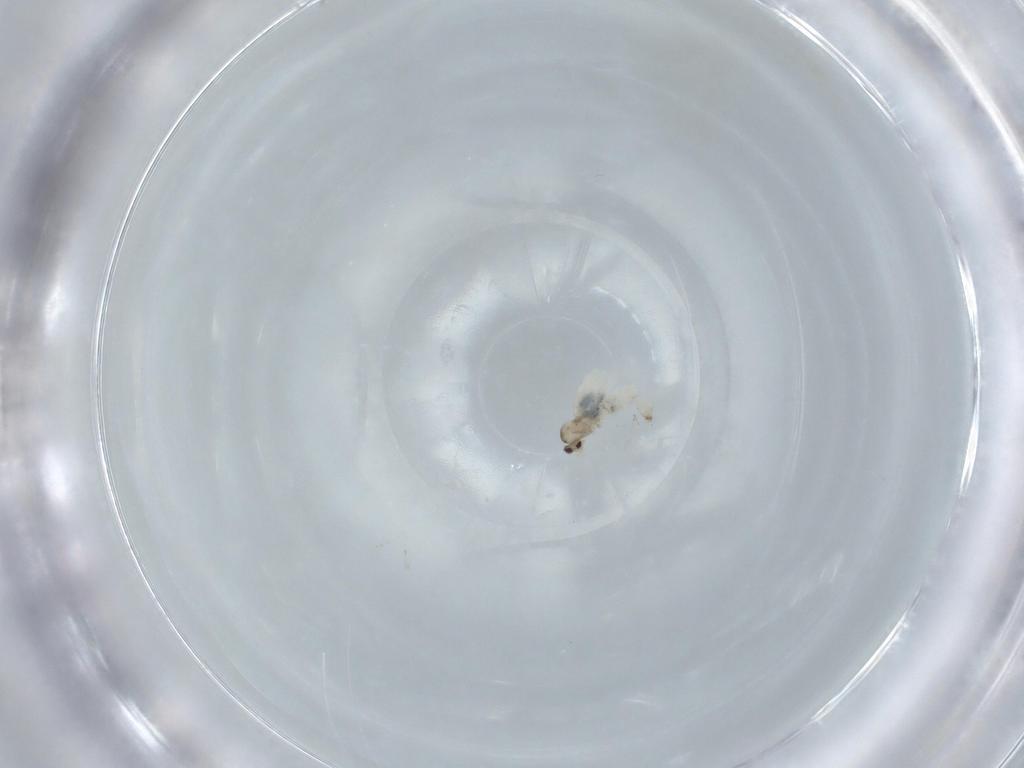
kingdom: Animalia
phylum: Arthropoda
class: Insecta
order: Diptera
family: Cecidomyiidae
